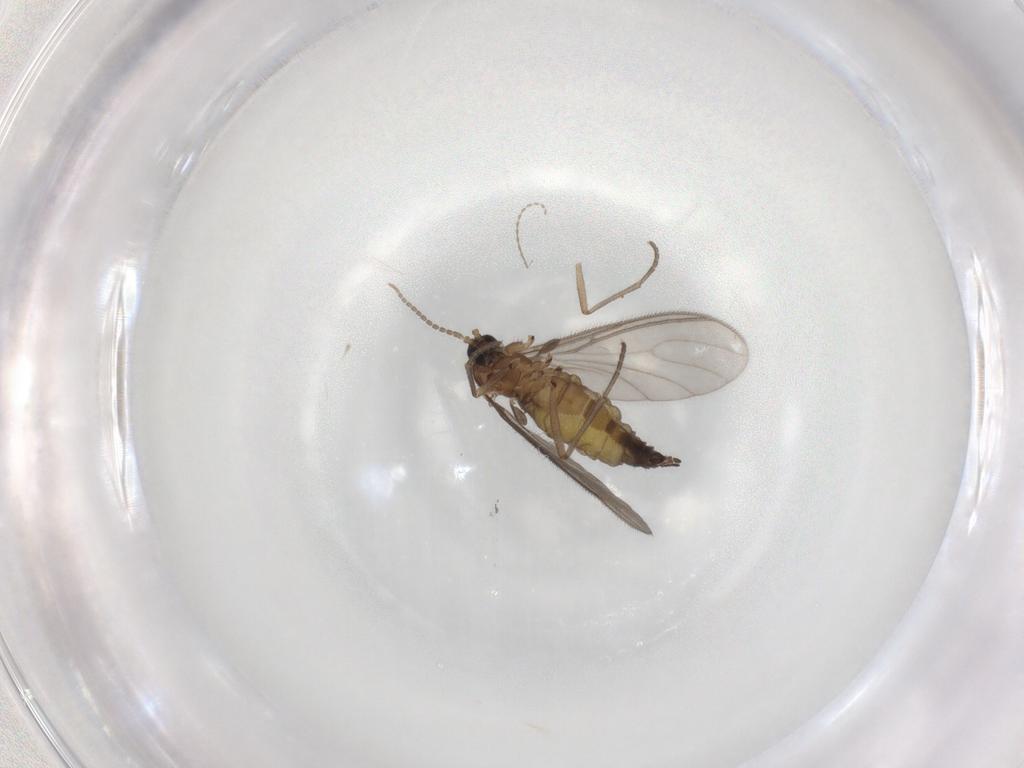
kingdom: Animalia
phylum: Arthropoda
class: Insecta
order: Diptera
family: Sciaridae
